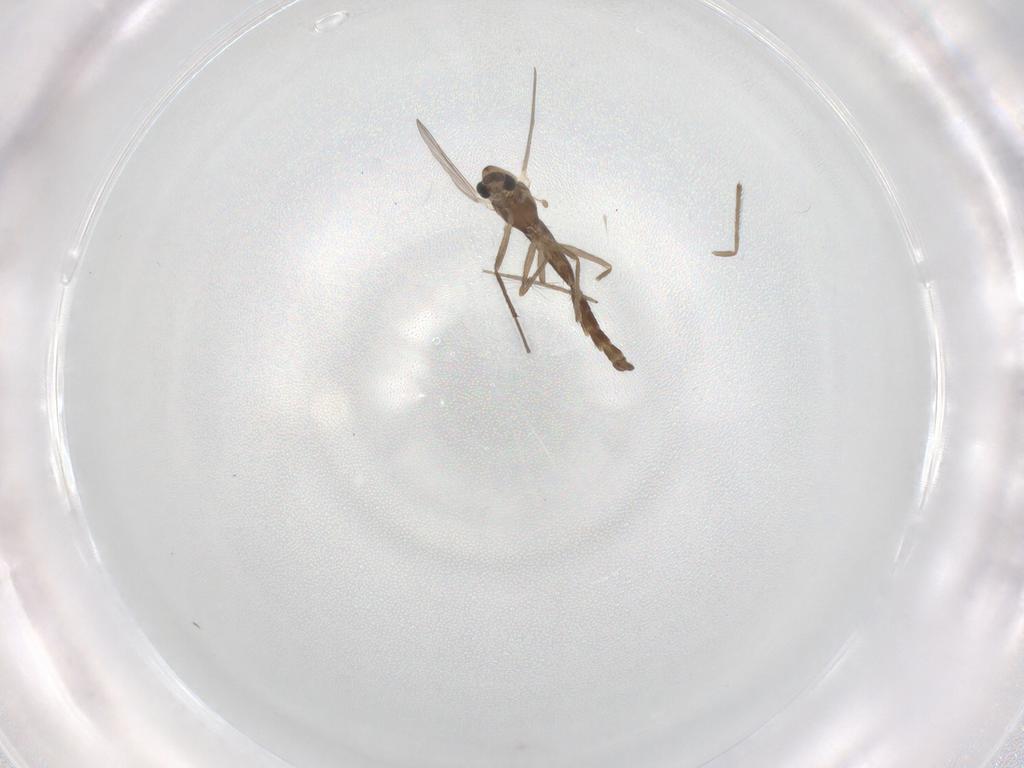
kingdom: Animalia
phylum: Arthropoda
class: Insecta
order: Diptera
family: Chironomidae
